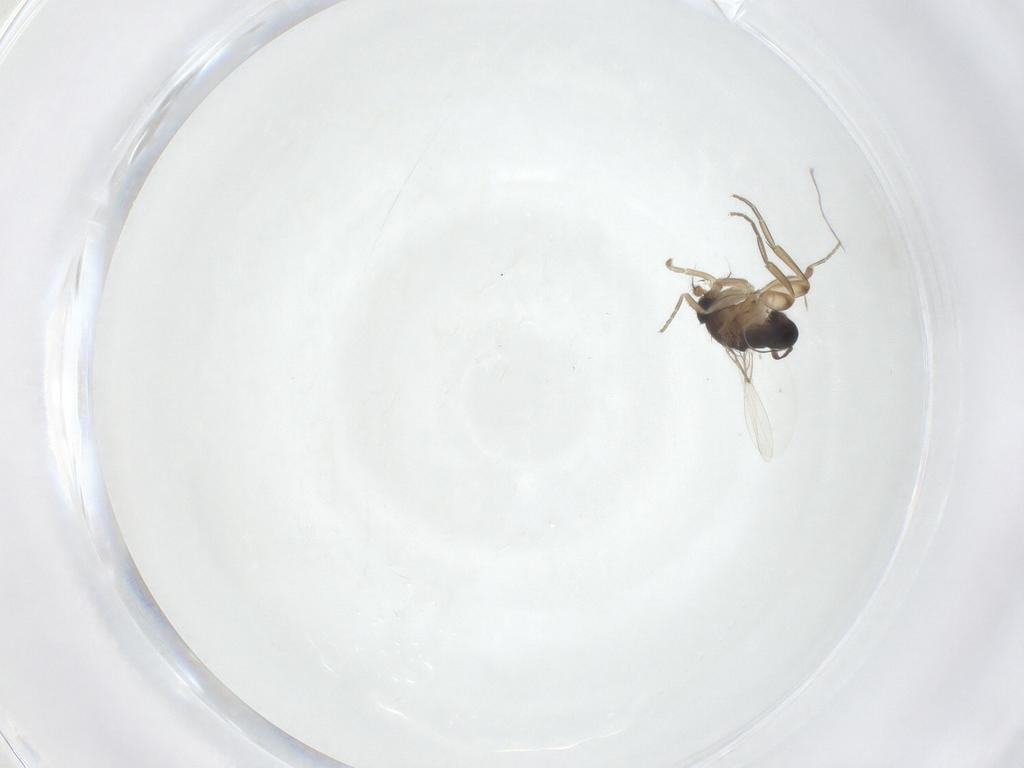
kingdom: Animalia
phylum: Arthropoda
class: Insecta
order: Diptera
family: Phoridae
